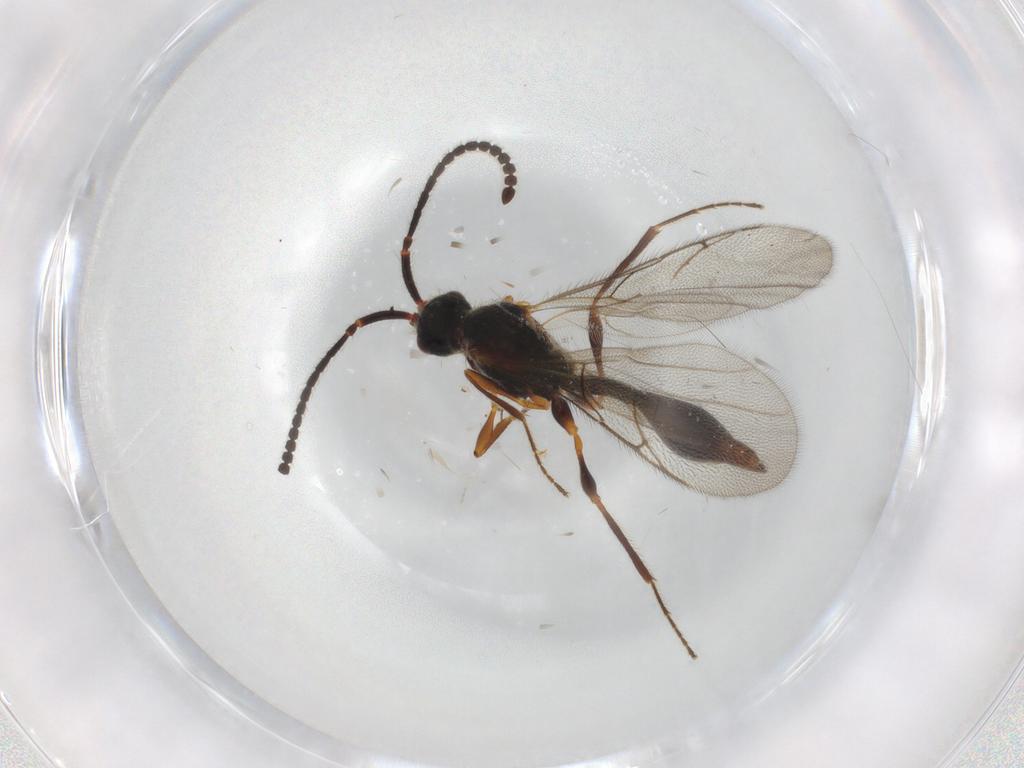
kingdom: Animalia
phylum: Arthropoda
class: Insecta
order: Hymenoptera
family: Diapriidae
